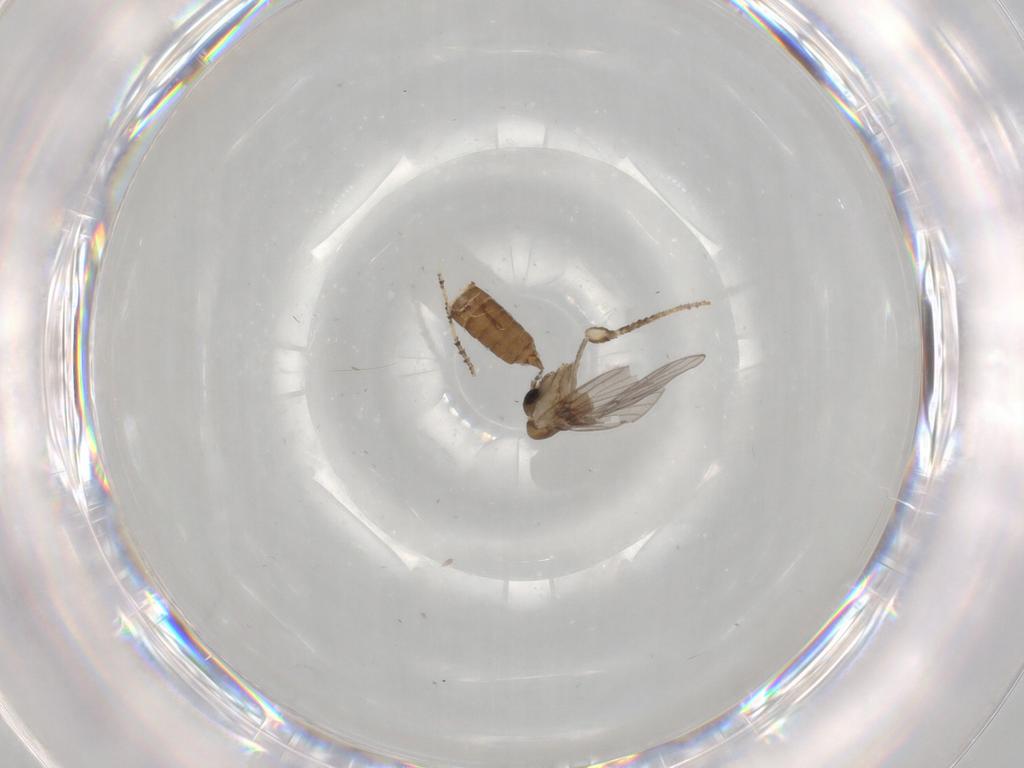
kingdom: Animalia
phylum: Arthropoda
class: Insecta
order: Diptera
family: Psychodidae
